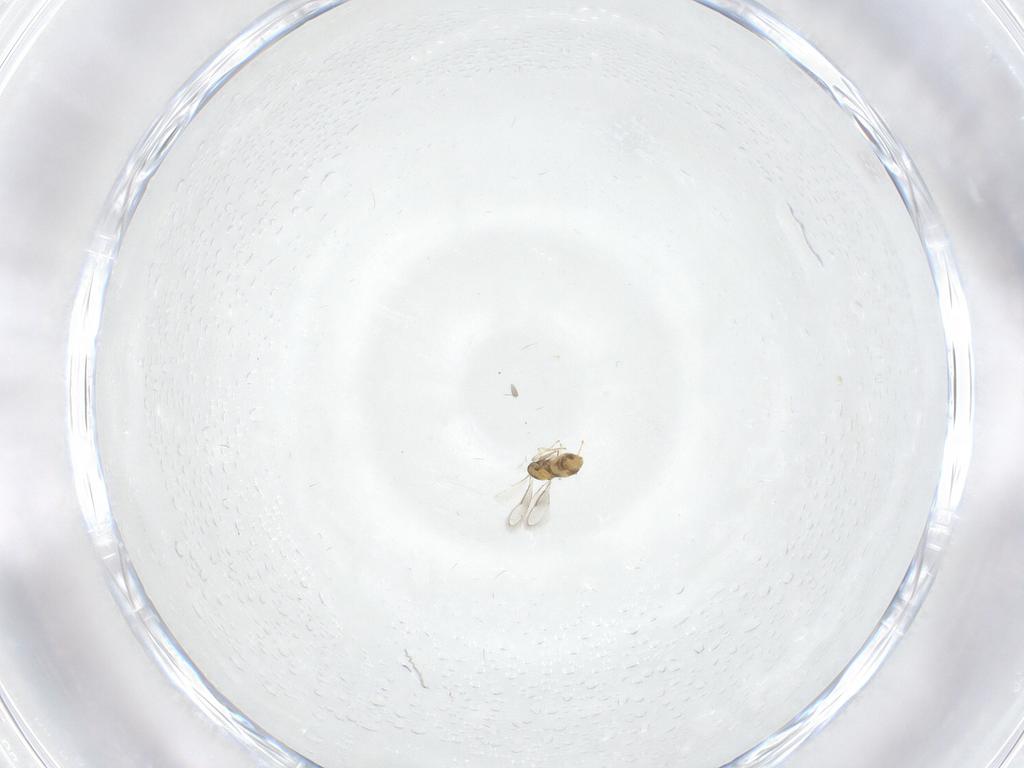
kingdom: Animalia
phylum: Arthropoda
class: Insecta
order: Hymenoptera
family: Aphelinidae
